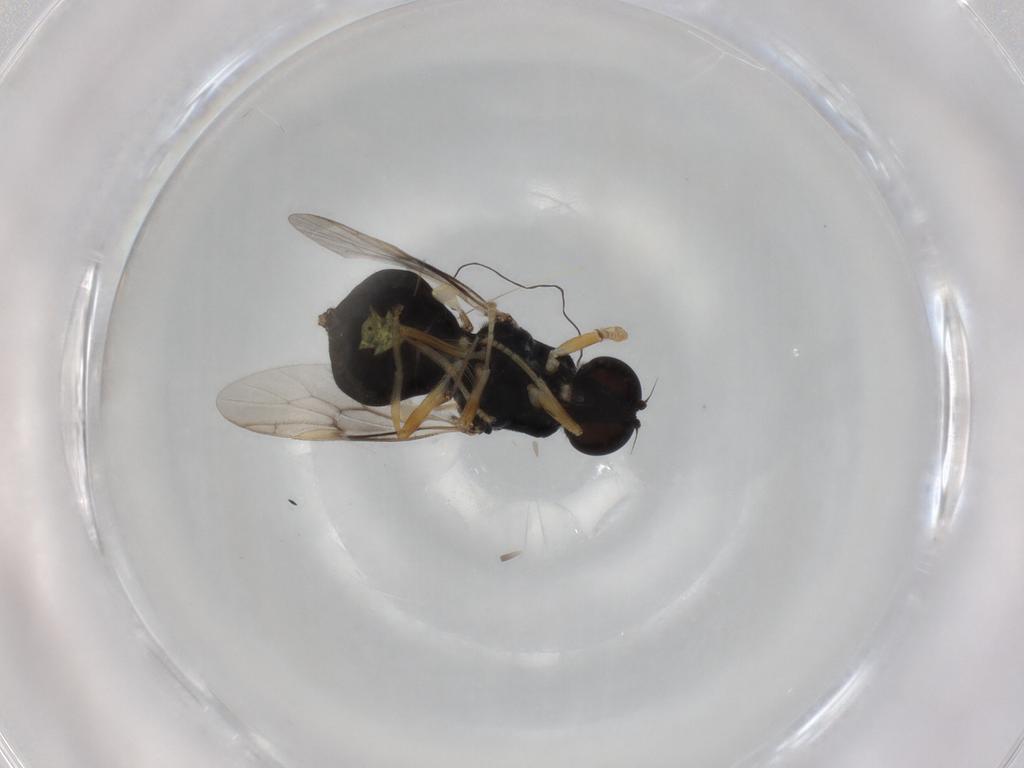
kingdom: Animalia
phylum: Arthropoda
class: Insecta
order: Diptera
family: Stratiomyidae
